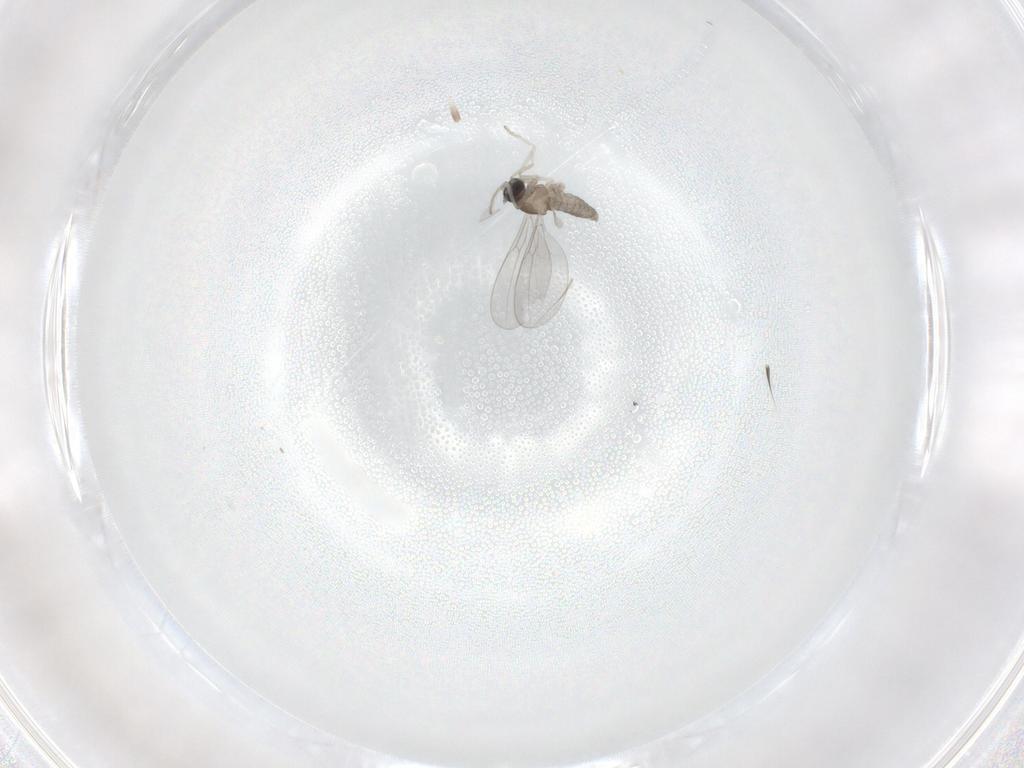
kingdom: Animalia
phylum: Arthropoda
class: Insecta
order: Diptera
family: Cecidomyiidae
